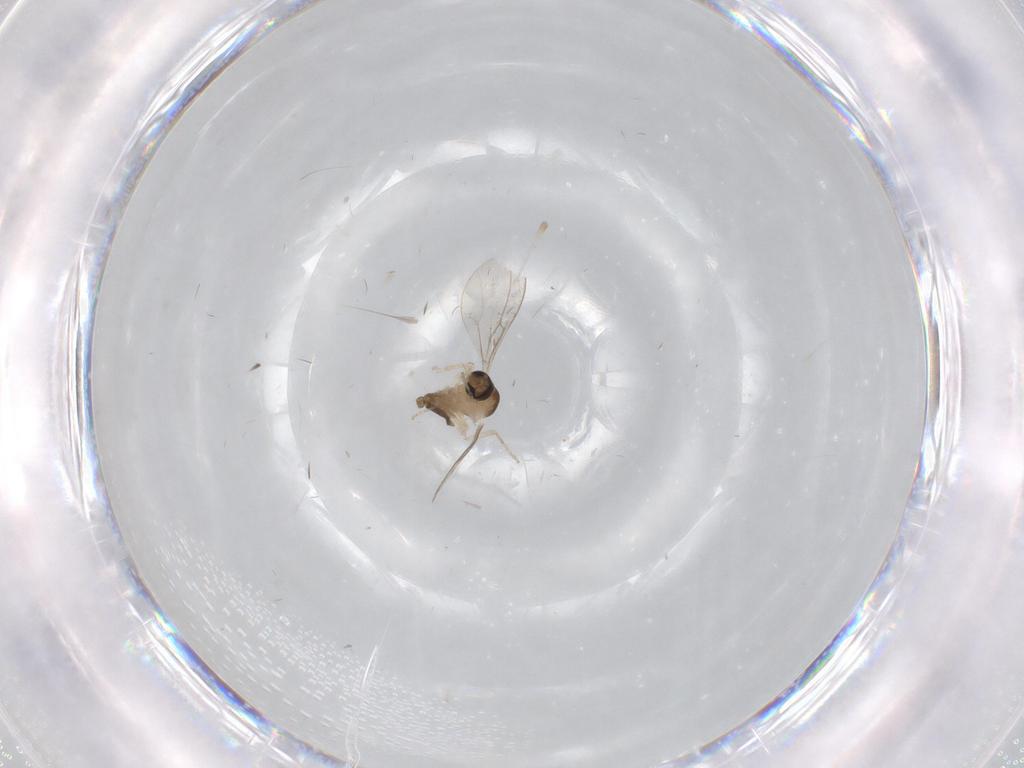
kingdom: Animalia
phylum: Arthropoda
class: Insecta
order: Diptera
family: Cecidomyiidae
